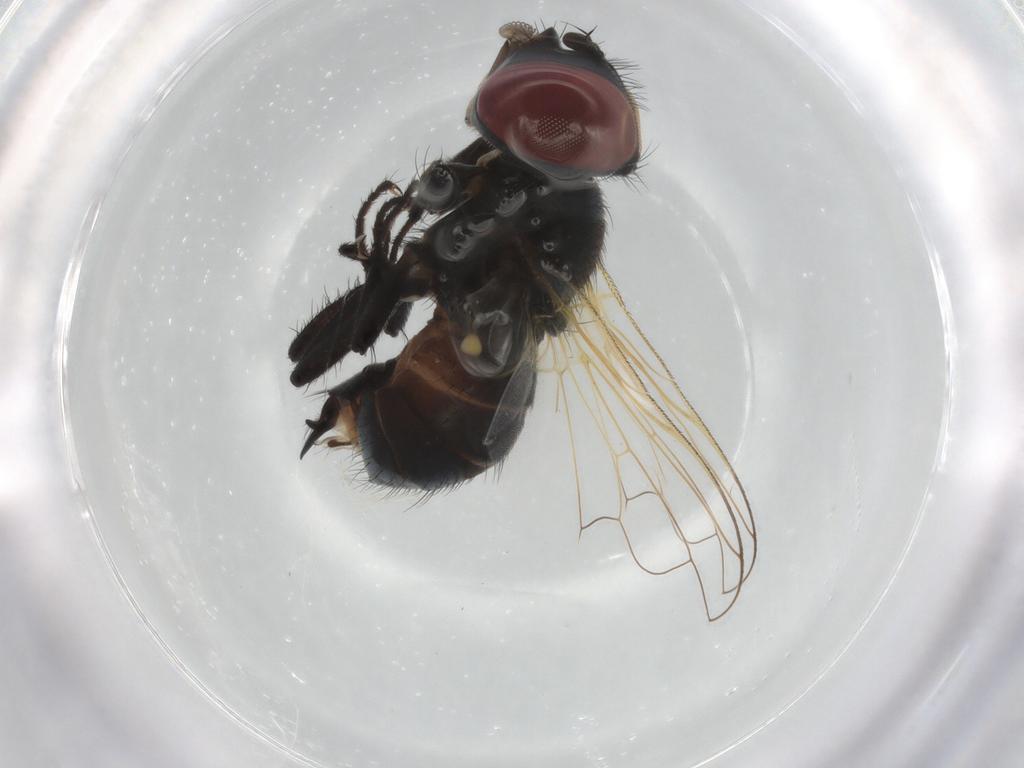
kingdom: Animalia
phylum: Arthropoda
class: Insecta
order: Diptera
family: Tachinidae
